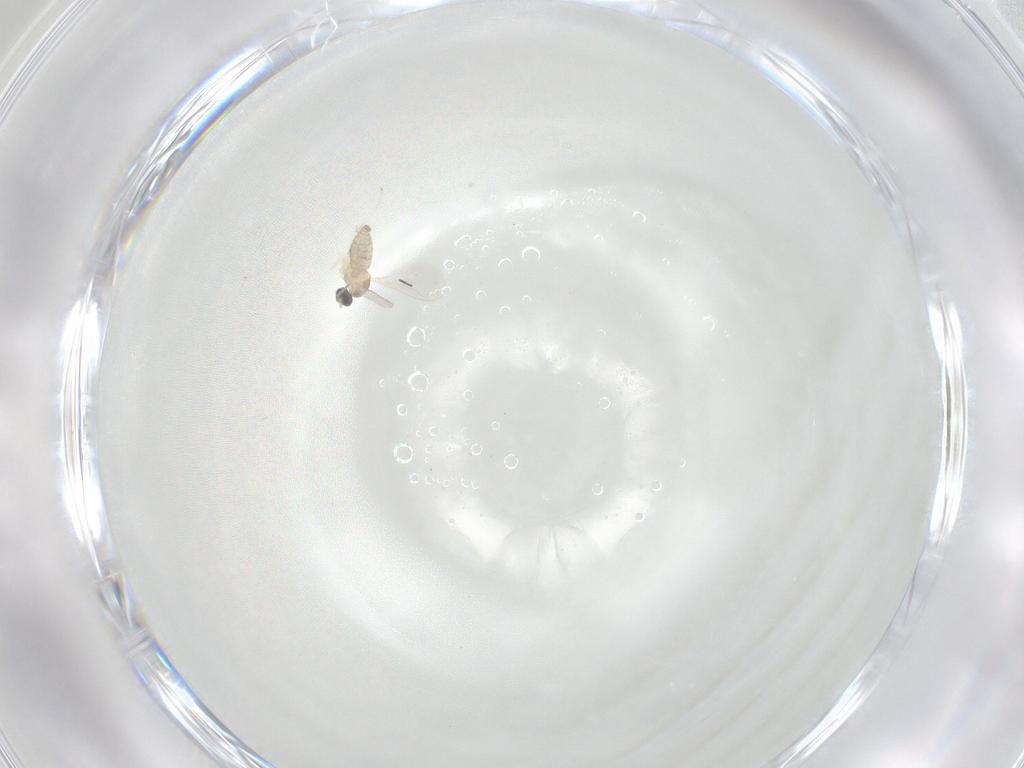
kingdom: Animalia
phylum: Arthropoda
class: Insecta
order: Diptera
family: Cecidomyiidae
